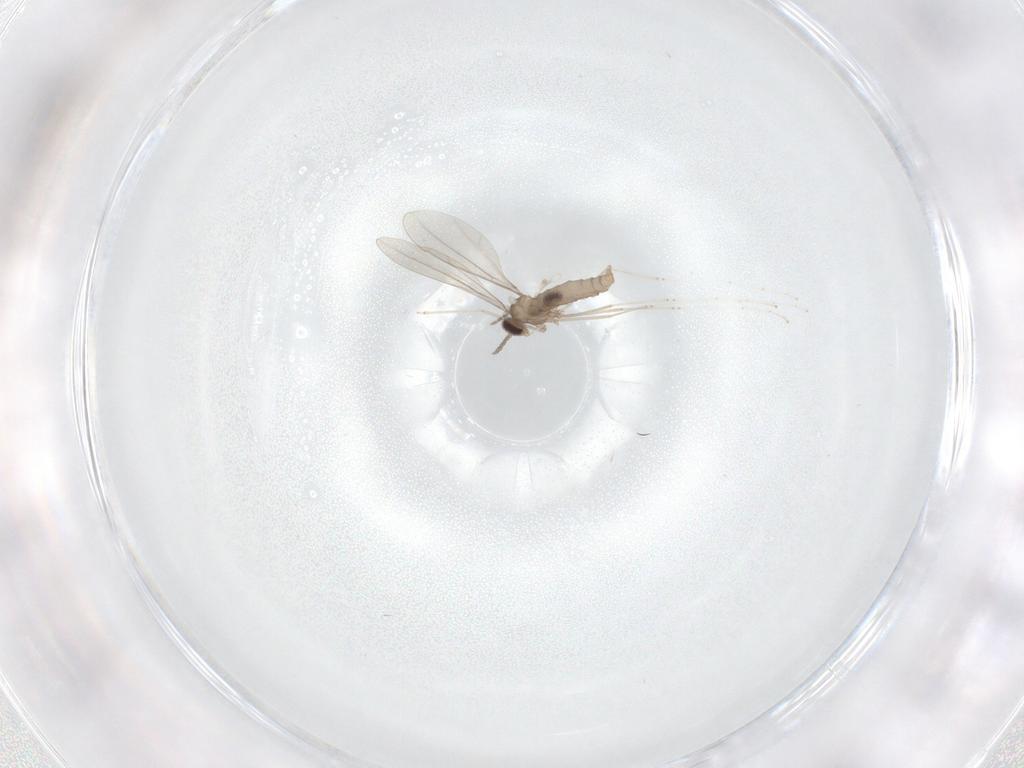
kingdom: Animalia
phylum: Arthropoda
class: Insecta
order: Diptera
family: Cecidomyiidae
